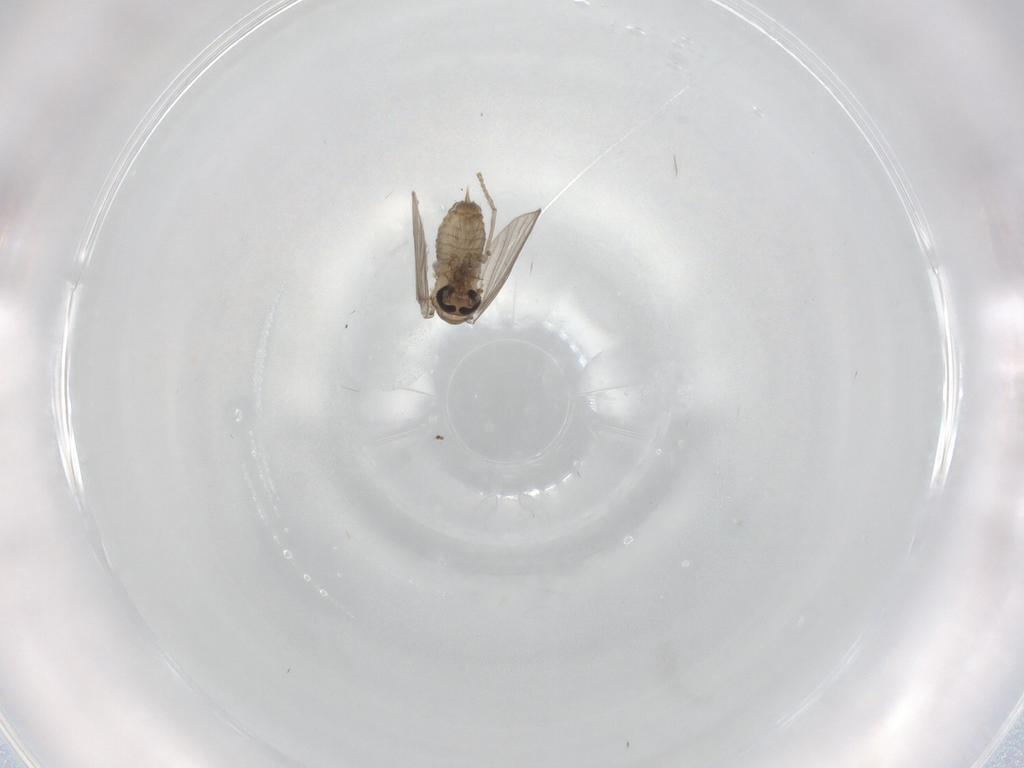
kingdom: Animalia
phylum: Arthropoda
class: Insecta
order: Diptera
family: Psychodidae
